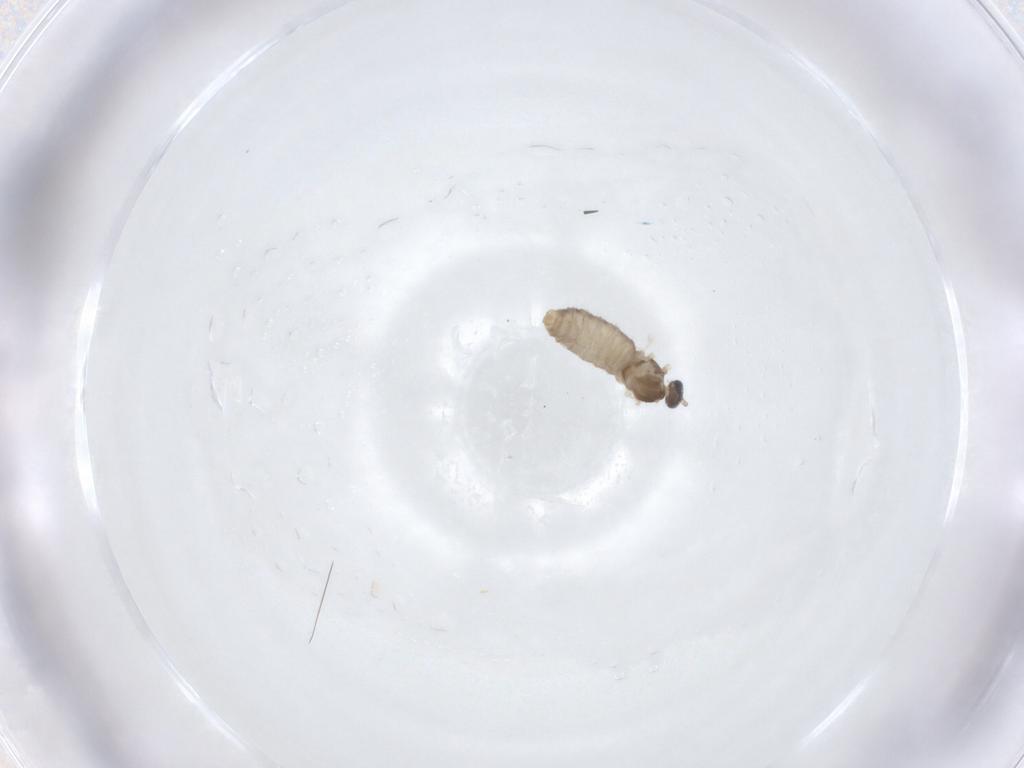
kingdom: Animalia
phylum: Arthropoda
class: Insecta
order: Diptera
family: Cecidomyiidae
